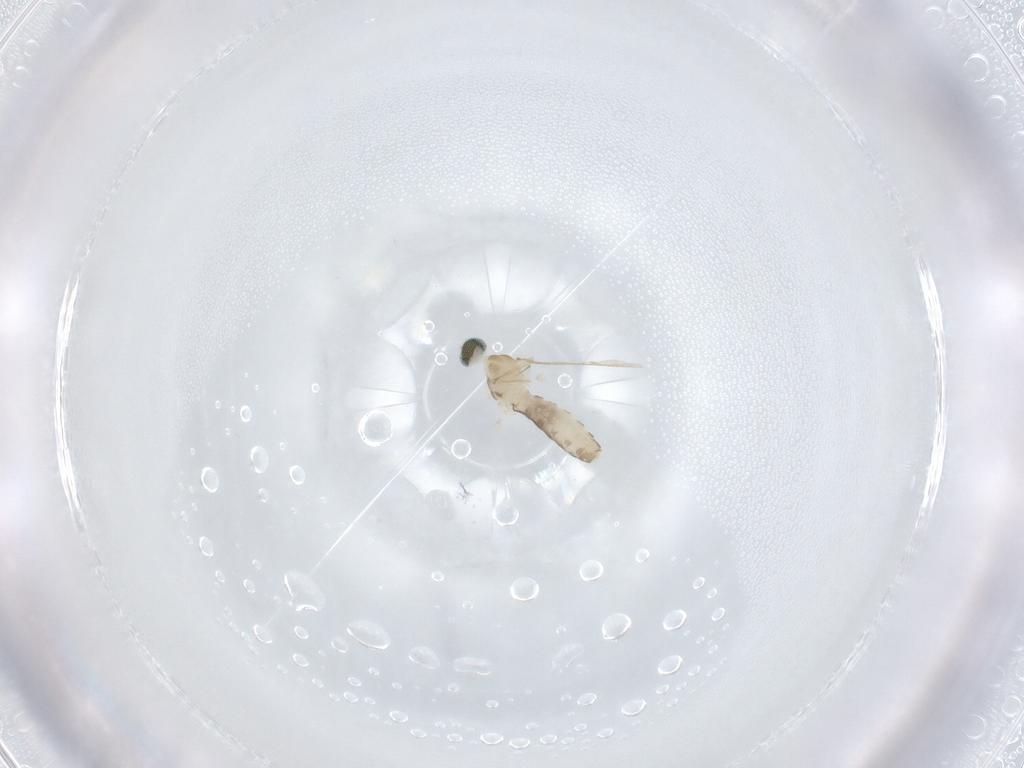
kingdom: Animalia
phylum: Arthropoda
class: Insecta
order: Diptera
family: Cecidomyiidae
